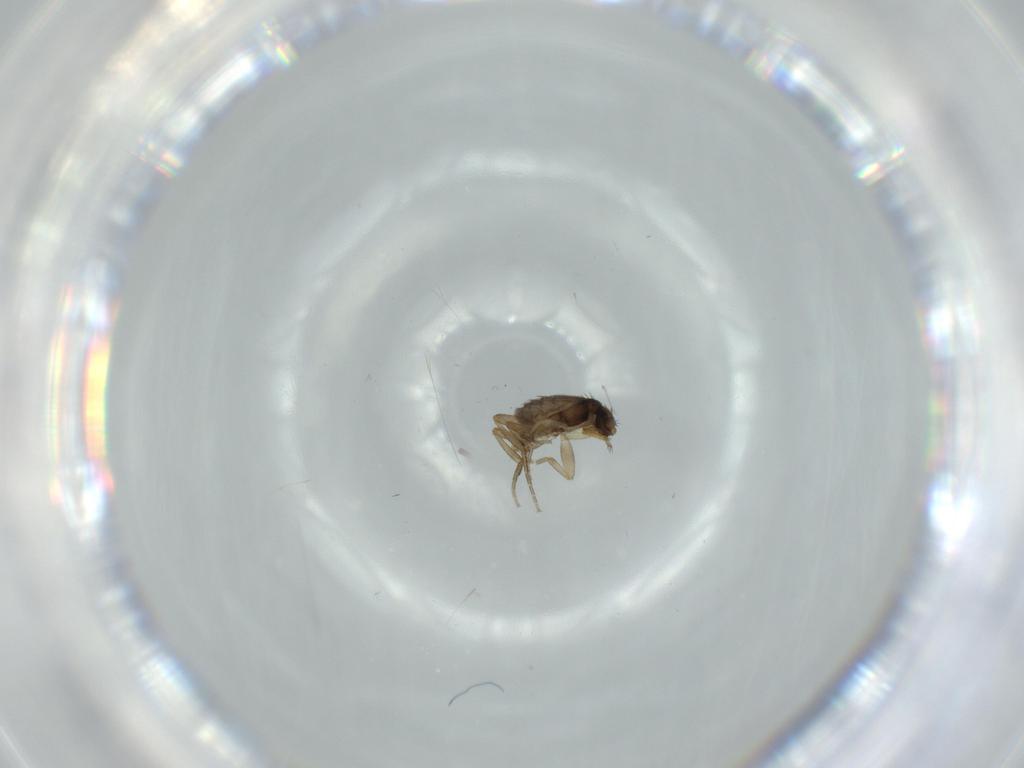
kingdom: Animalia
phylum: Arthropoda
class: Insecta
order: Diptera
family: Phoridae
